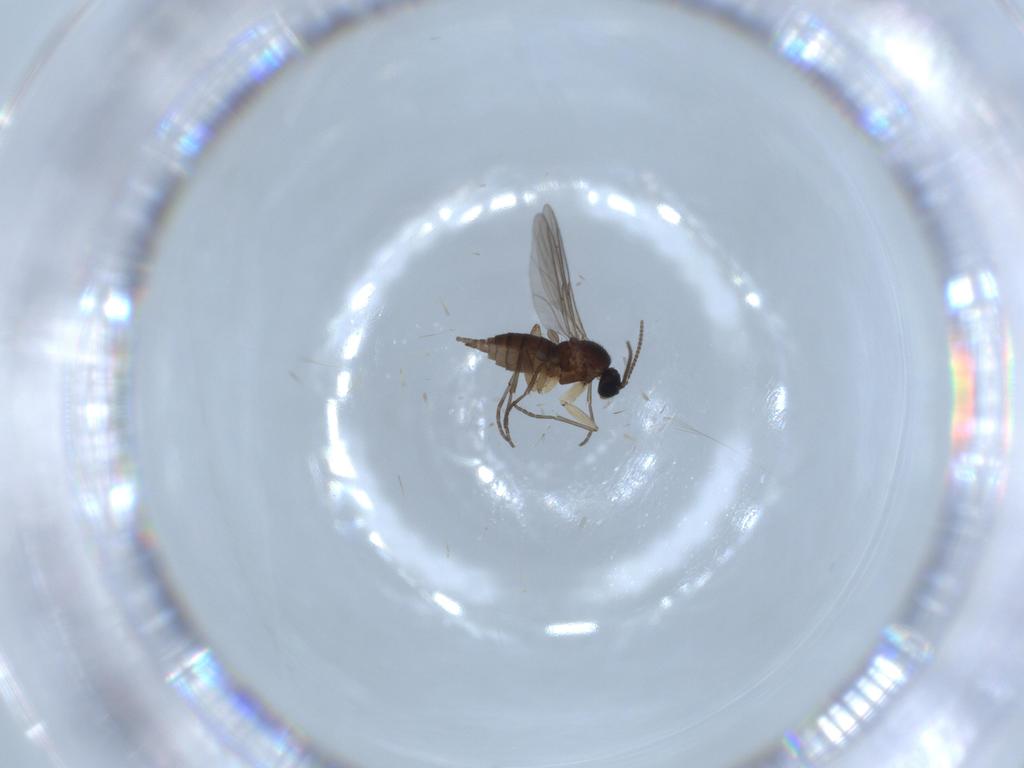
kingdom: Animalia
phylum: Arthropoda
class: Insecta
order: Diptera
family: Sciaridae
